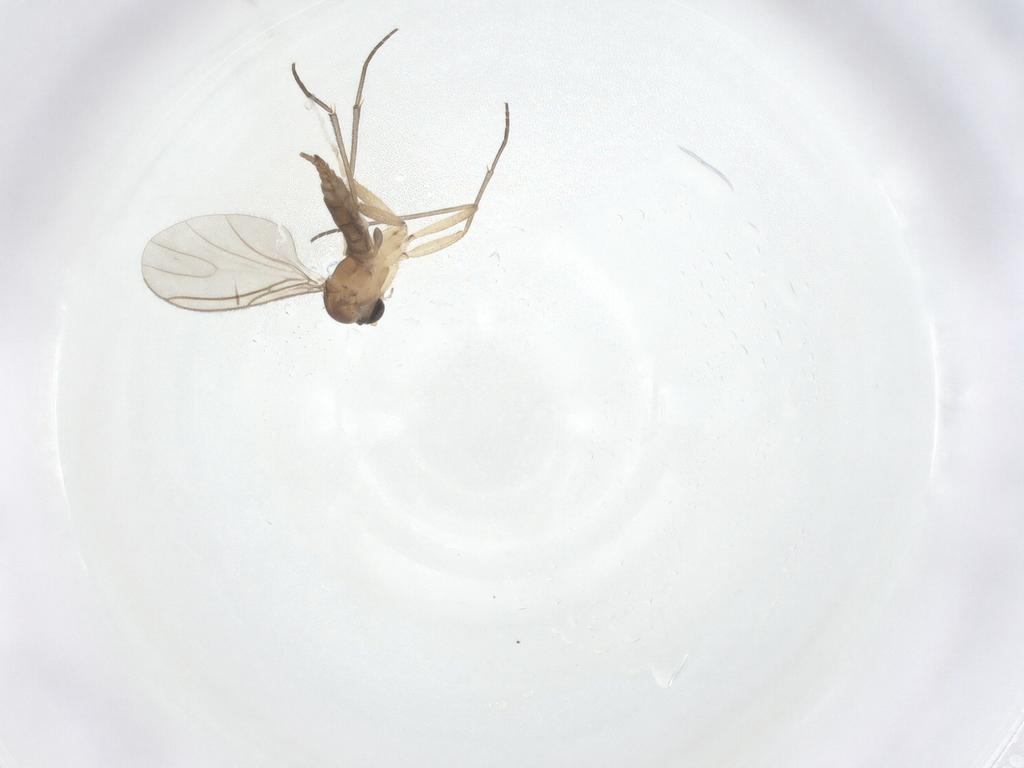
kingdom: Animalia
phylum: Arthropoda
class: Insecta
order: Diptera
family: Sciaridae
